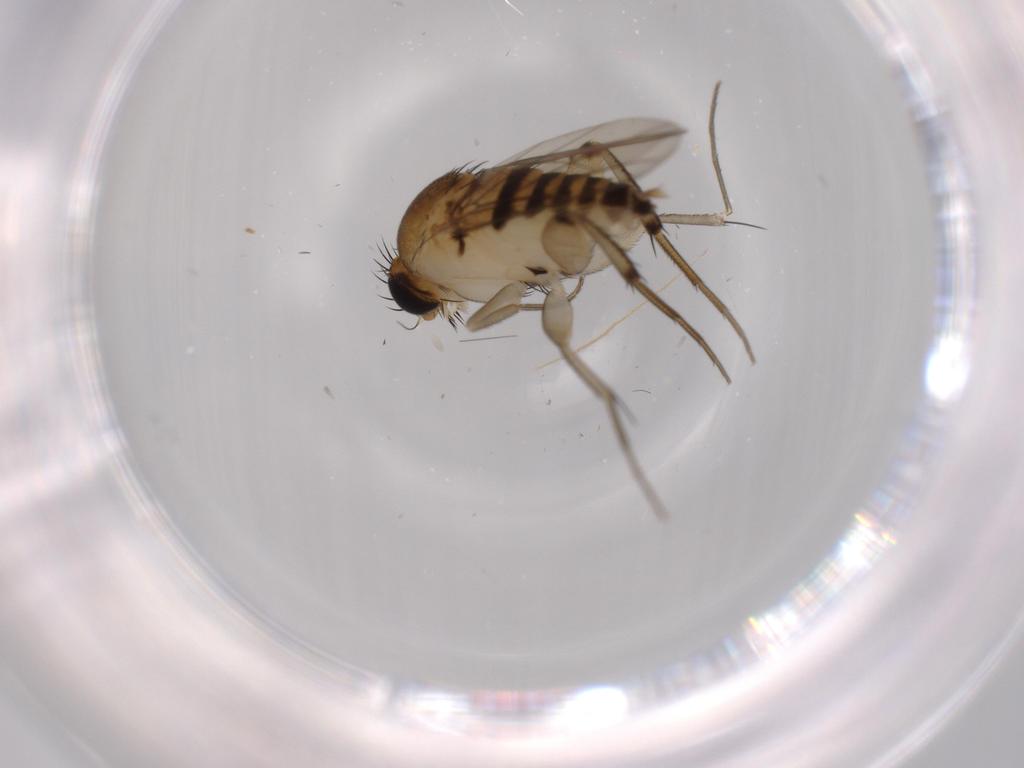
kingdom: Animalia
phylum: Arthropoda
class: Insecta
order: Diptera
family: Phoridae
